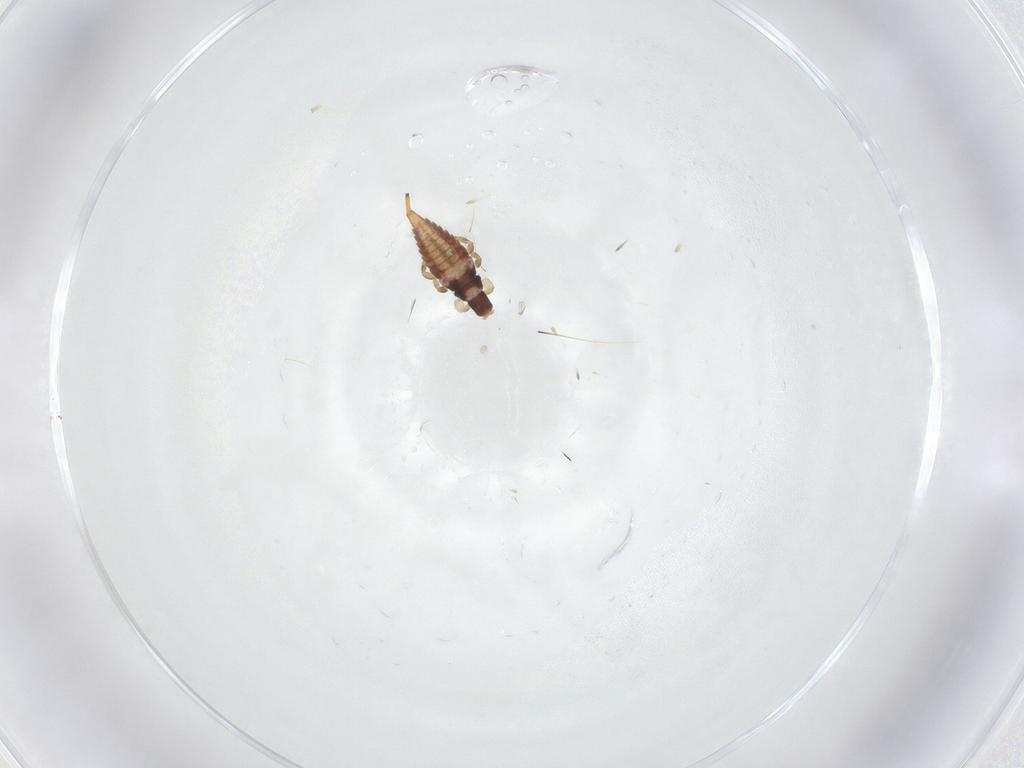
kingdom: Animalia
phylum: Arthropoda
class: Insecta
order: Thysanoptera
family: Phlaeothripidae
